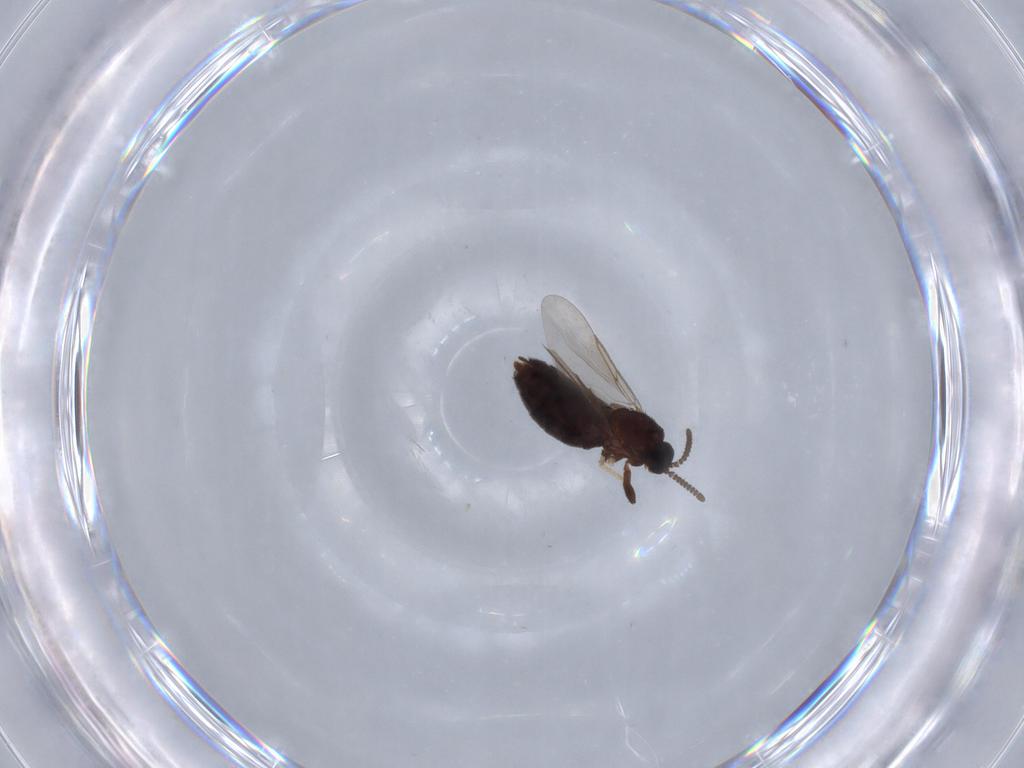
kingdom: Animalia
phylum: Arthropoda
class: Insecta
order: Diptera
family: Scatopsidae
